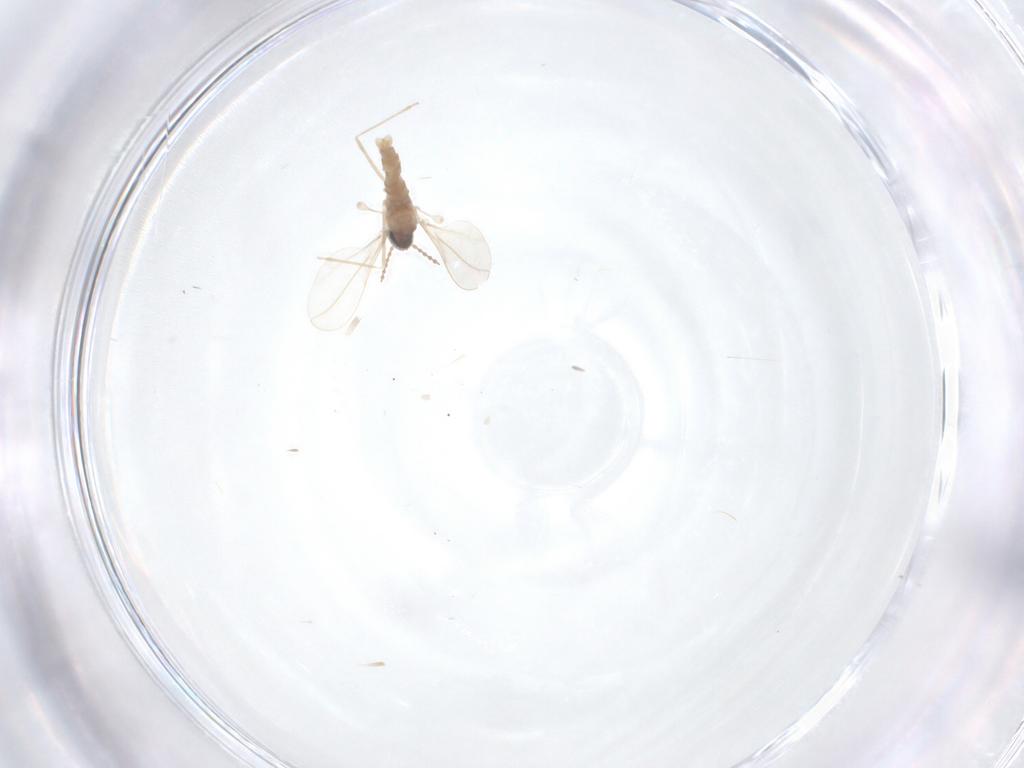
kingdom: Animalia
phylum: Arthropoda
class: Insecta
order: Diptera
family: Cecidomyiidae
